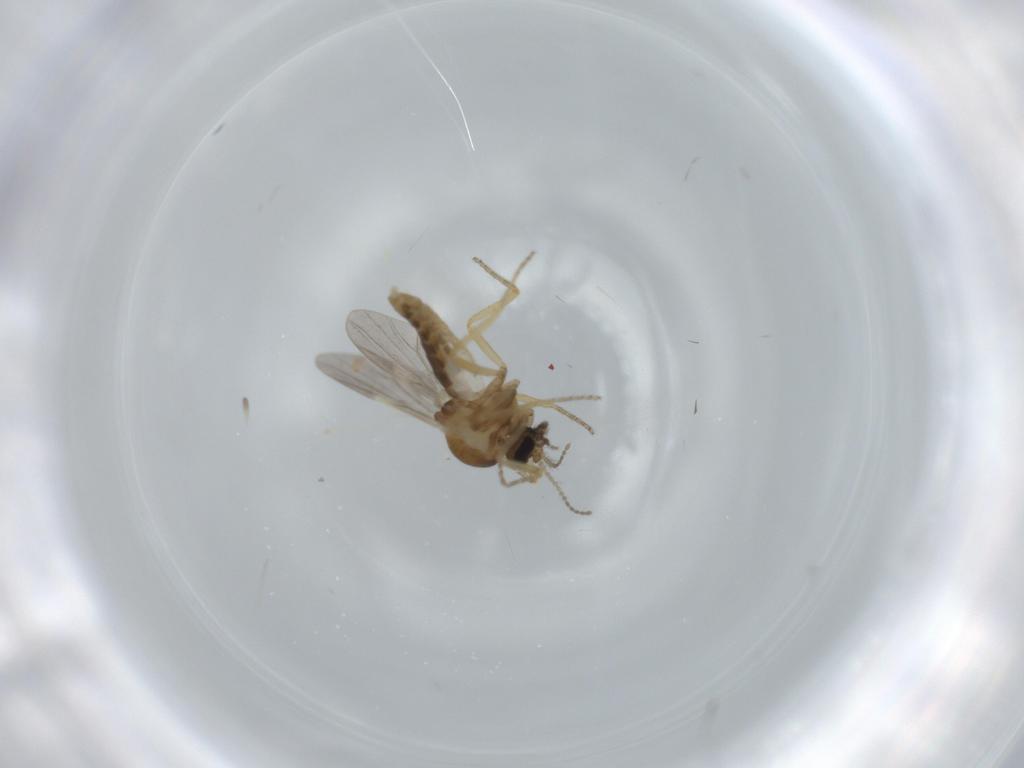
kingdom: Animalia
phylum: Arthropoda
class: Insecta
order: Diptera
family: Ceratopogonidae
